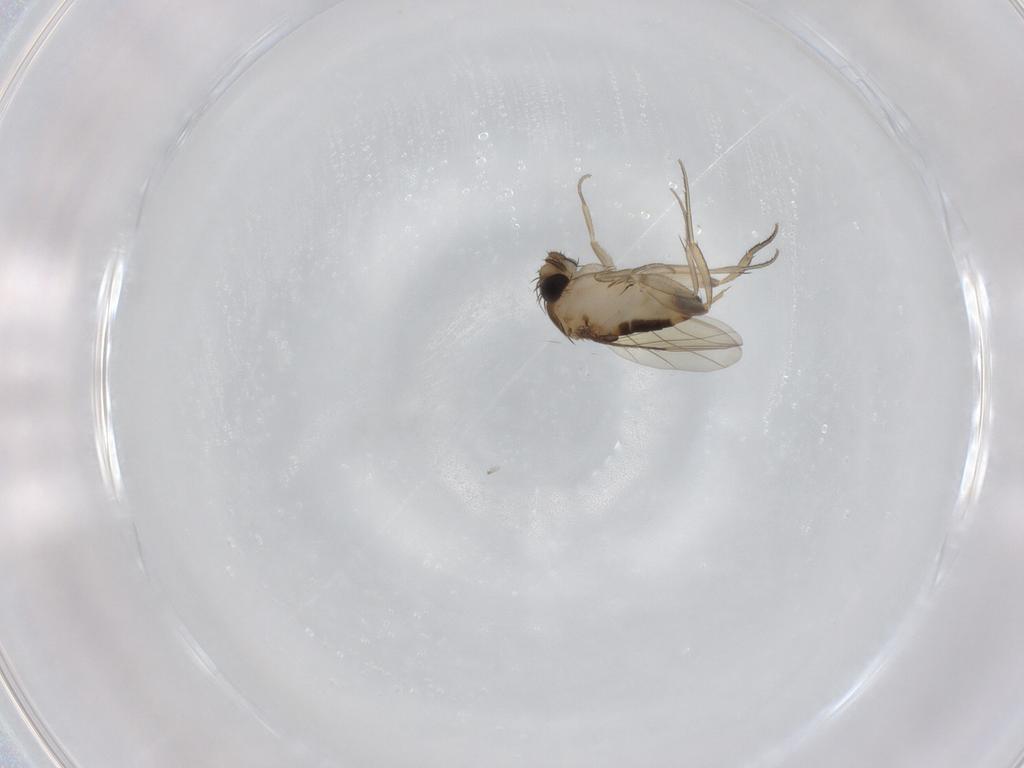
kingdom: Animalia
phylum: Arthropoda
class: Insecta
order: Diptera
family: Phoridae
